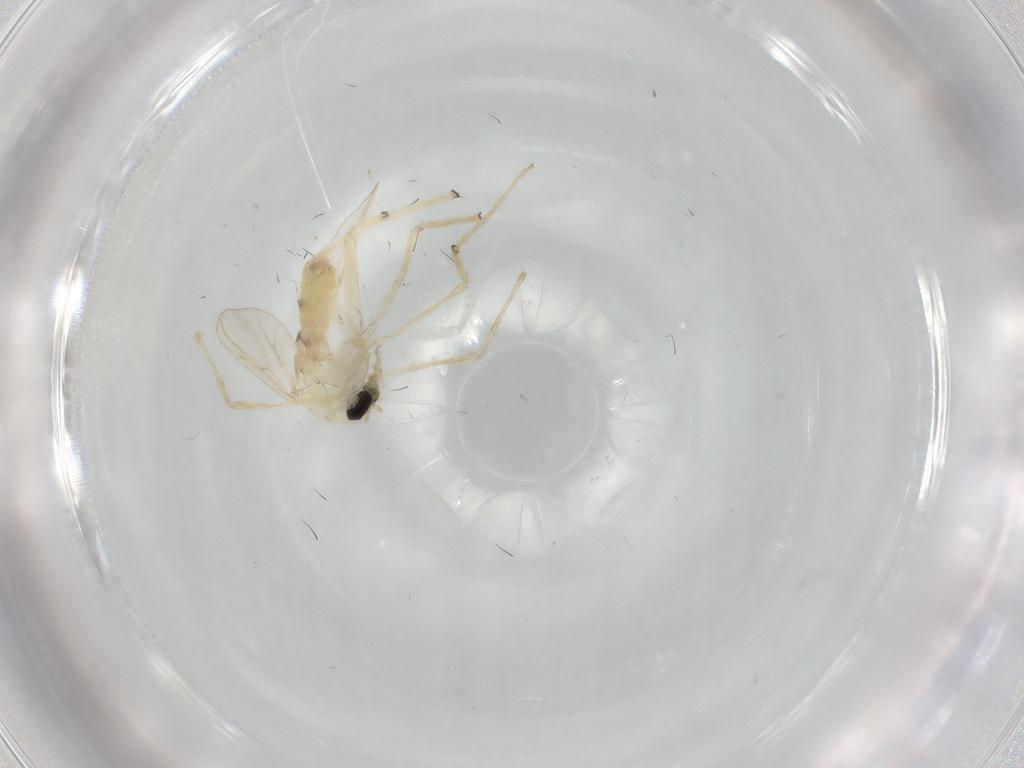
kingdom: Animalia
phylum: Arthropoda
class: Insecta
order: Diptera
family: Chironomidae
